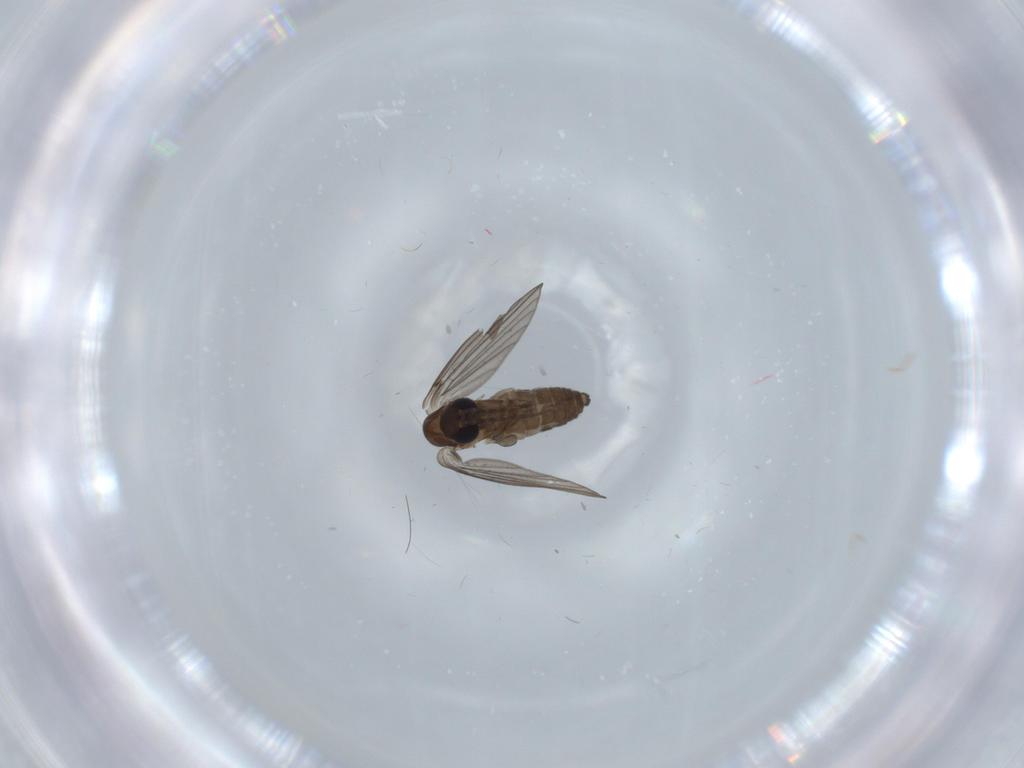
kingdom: Animalia
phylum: Arthropoda
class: Insecta
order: Diptera
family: Psychodidae
